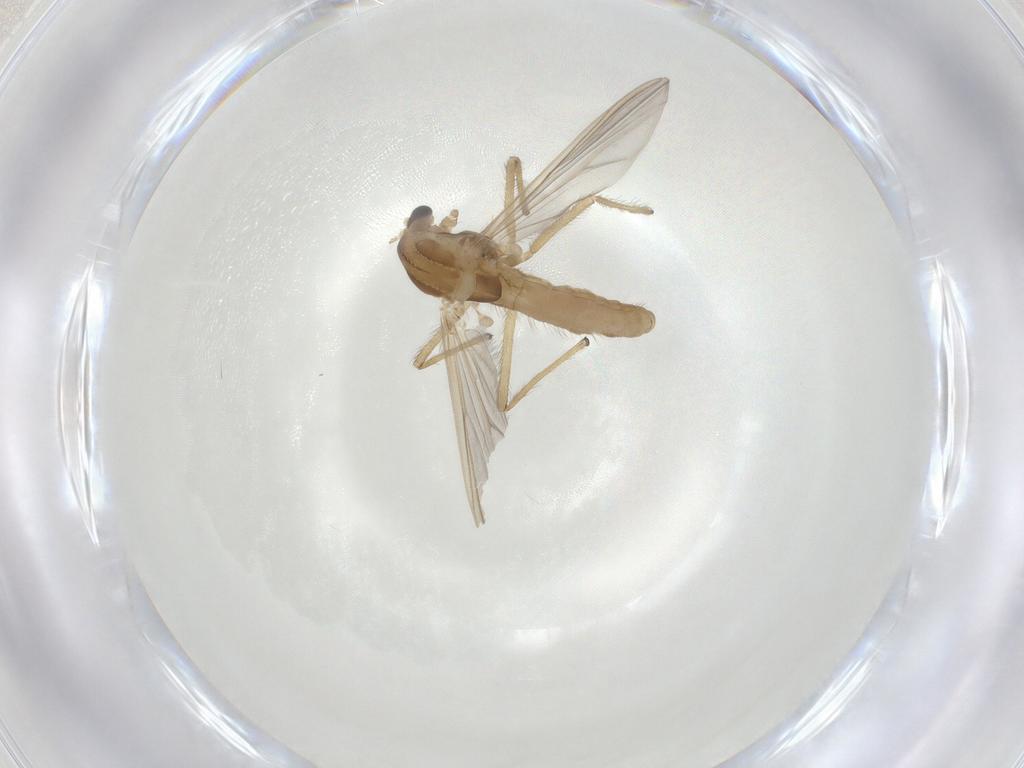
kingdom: Animalia
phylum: Arthropoda
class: Insecta
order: Diptera
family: Chironomidae
